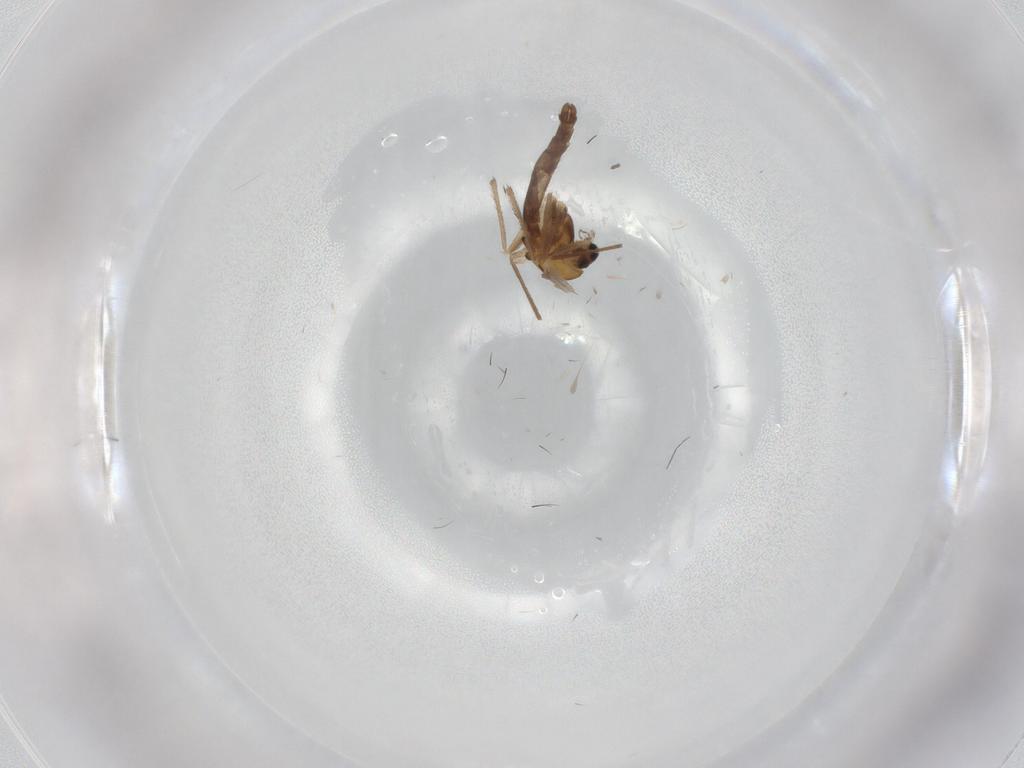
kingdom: Animalia
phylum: Arthropoda
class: Insecta
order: Diptera
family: Chironomidae
